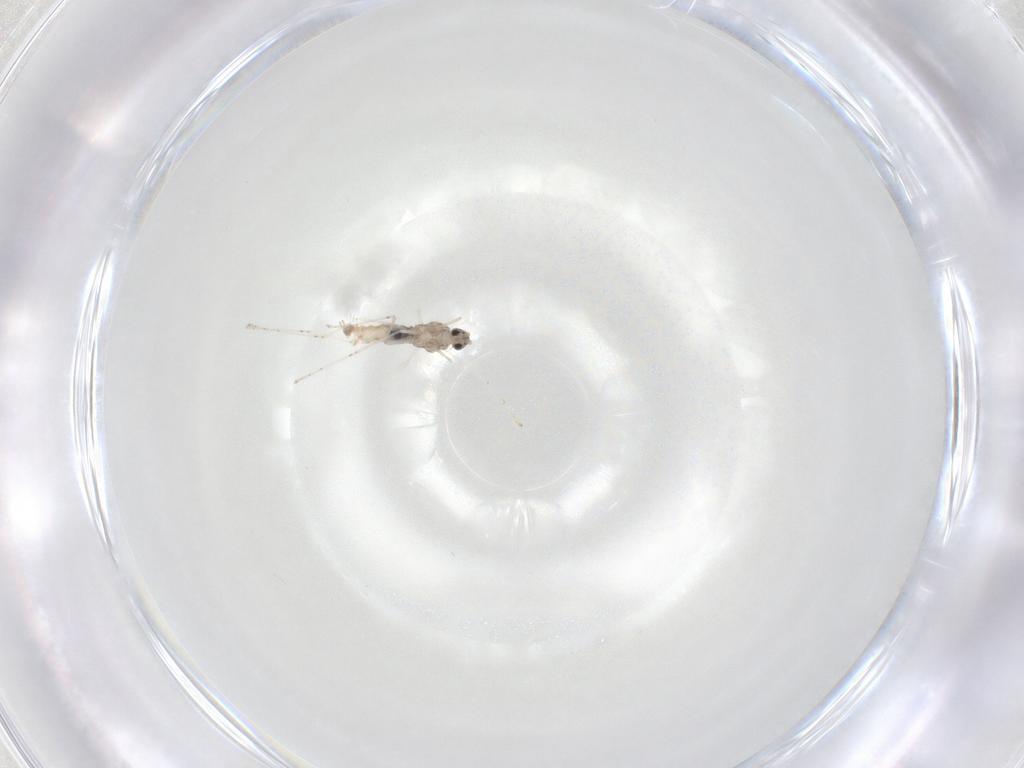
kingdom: Animalia
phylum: Arthropoda
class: Insecta
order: Diptera
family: Cecidomyiidae
